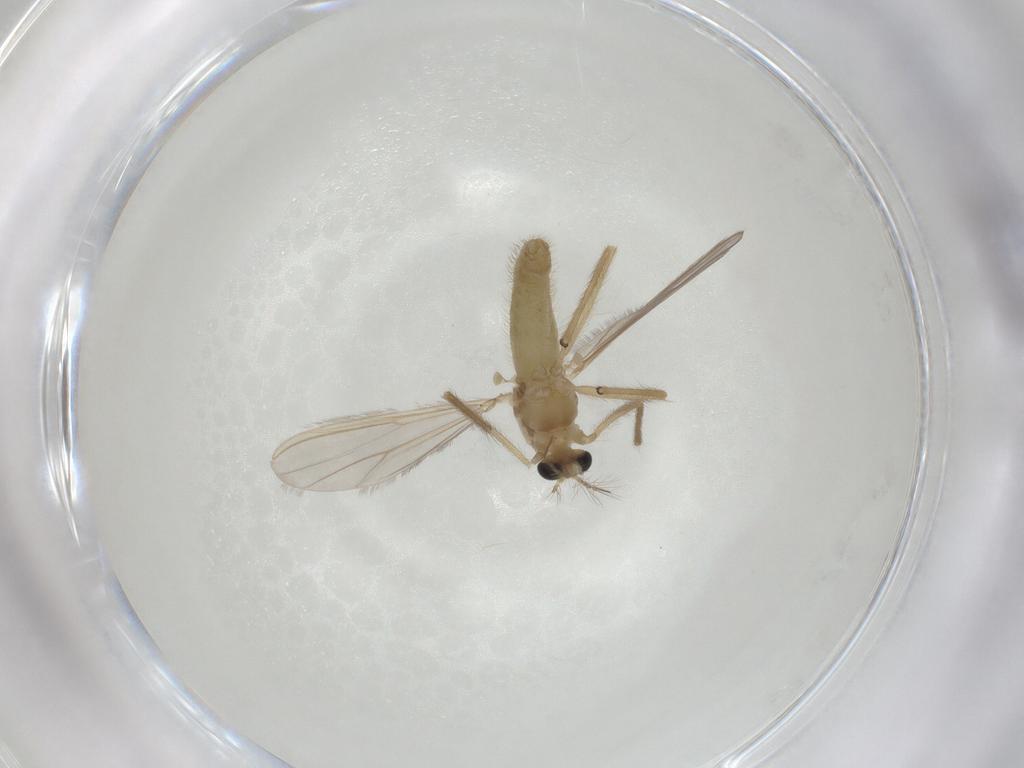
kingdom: Animalia
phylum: Arthropoda
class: Insecta
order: Diptera
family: Chironomidae
